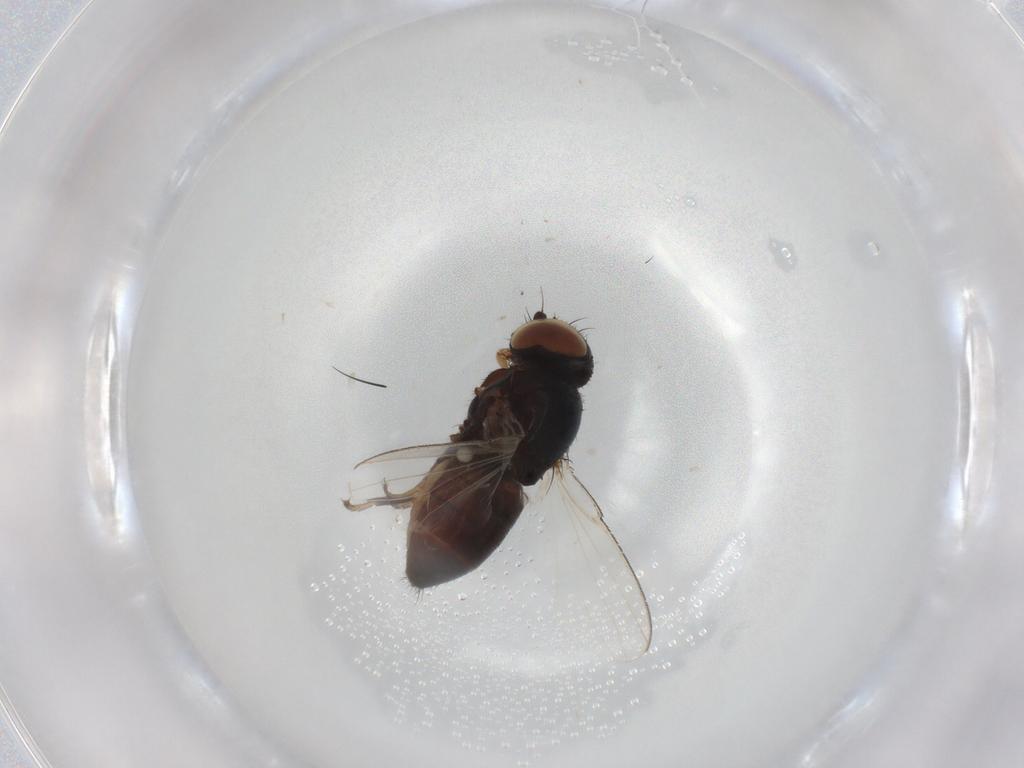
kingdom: Animalia
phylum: Arthropoda
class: Insecta
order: Diptera
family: Milichiidae
